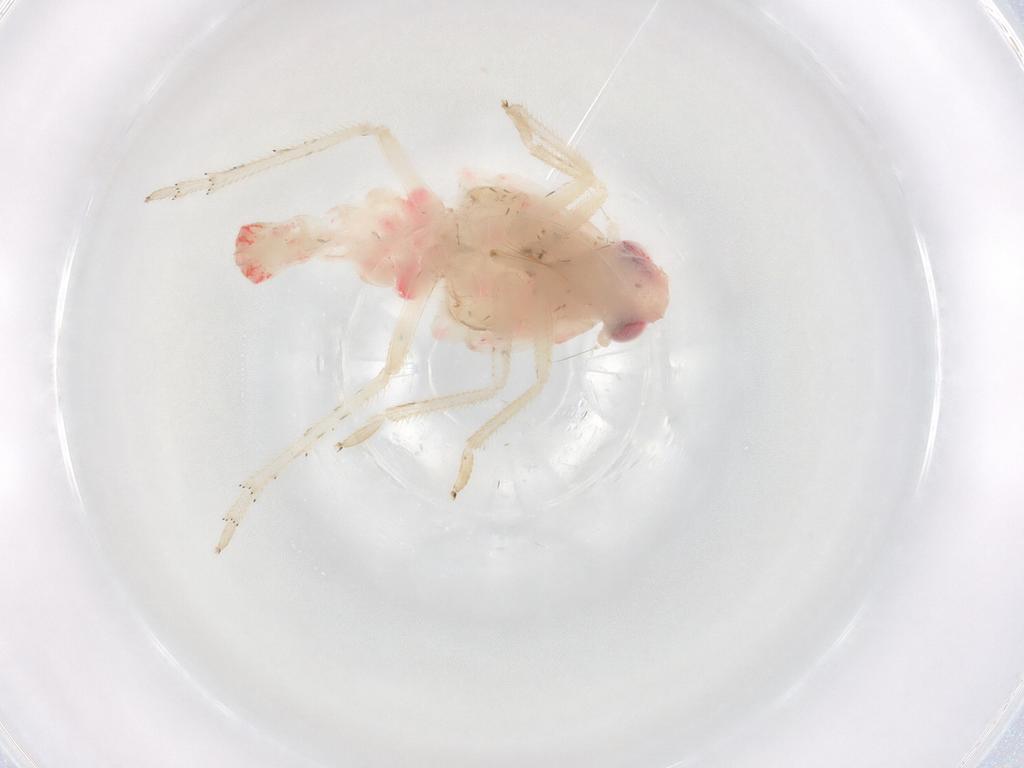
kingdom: Animalia
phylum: Arthropoda
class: Insecta
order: Hemiptera
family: Tropiduchidae
